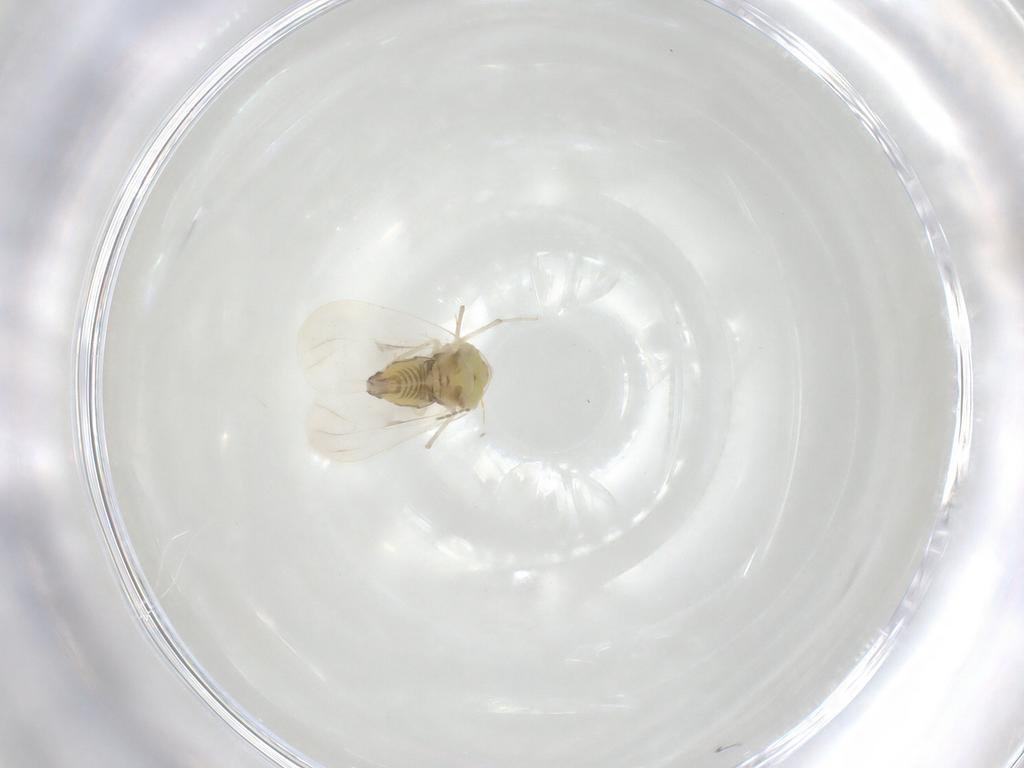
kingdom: Animalia
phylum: Arthropoda
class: Insecta
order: Hemiptera
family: Aleyrodidae
